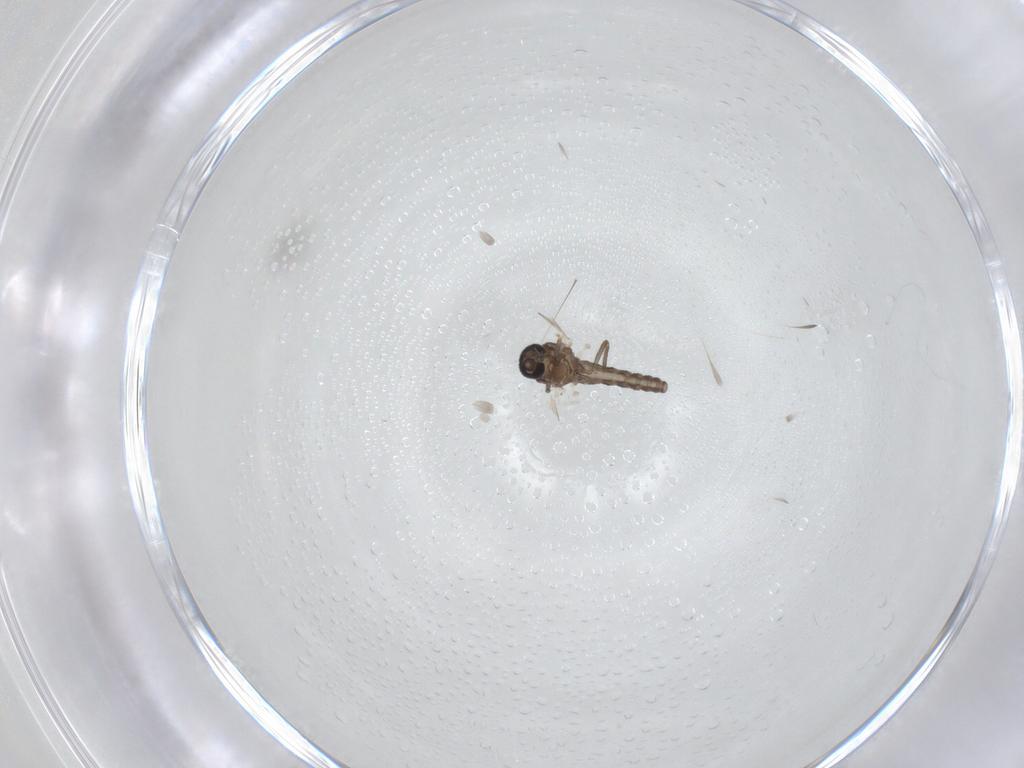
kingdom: Animalia
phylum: Arthropoda
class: Insecta
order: Diptera
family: Ceratopogonidae
